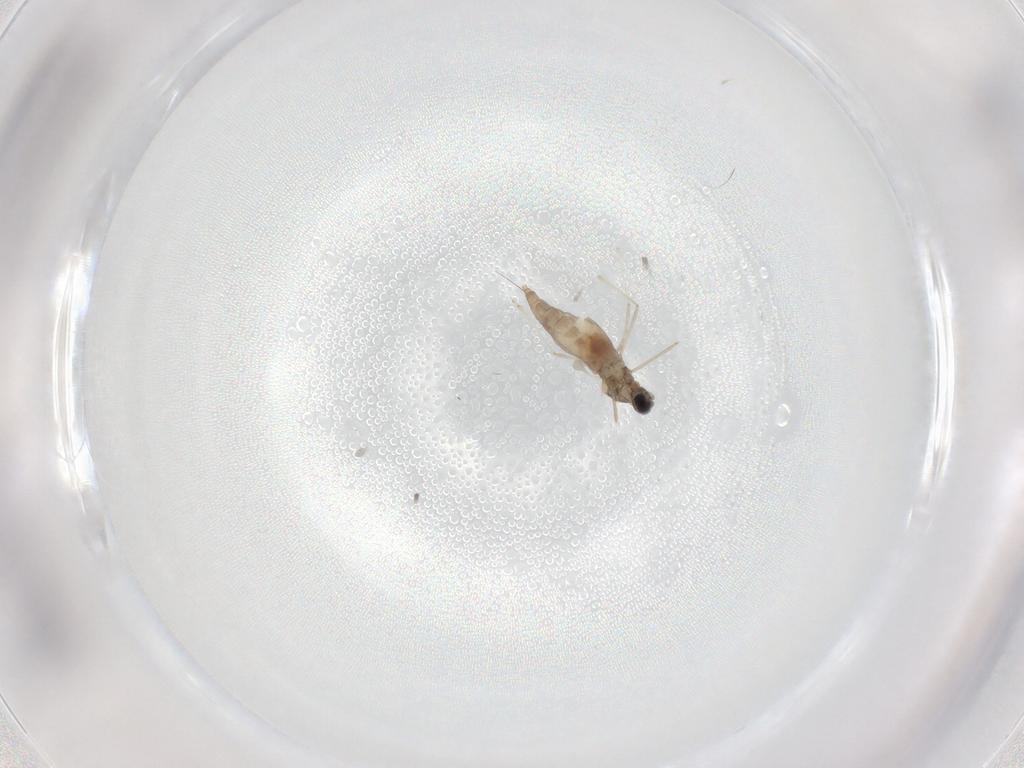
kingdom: Animalia
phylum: Arthropoda
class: Insecta
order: Diptera
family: Cecidomyiidae
